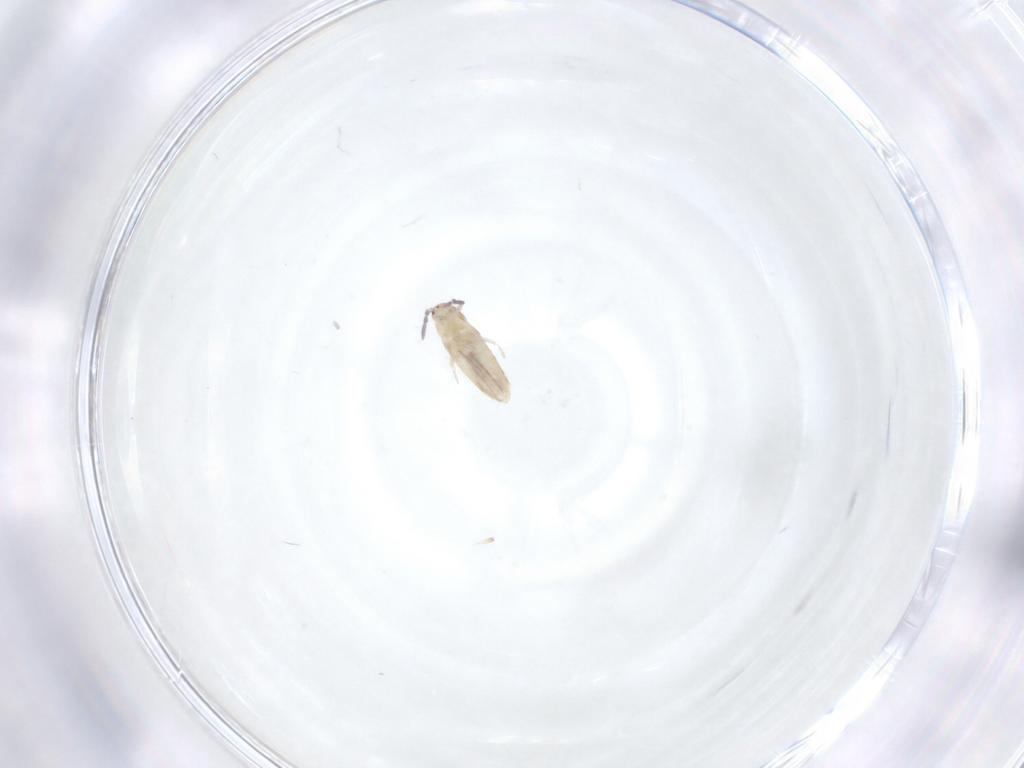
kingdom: Animalia
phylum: Arthropoda
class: Collembola
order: Entomobryomorpha
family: Entomobryidae
